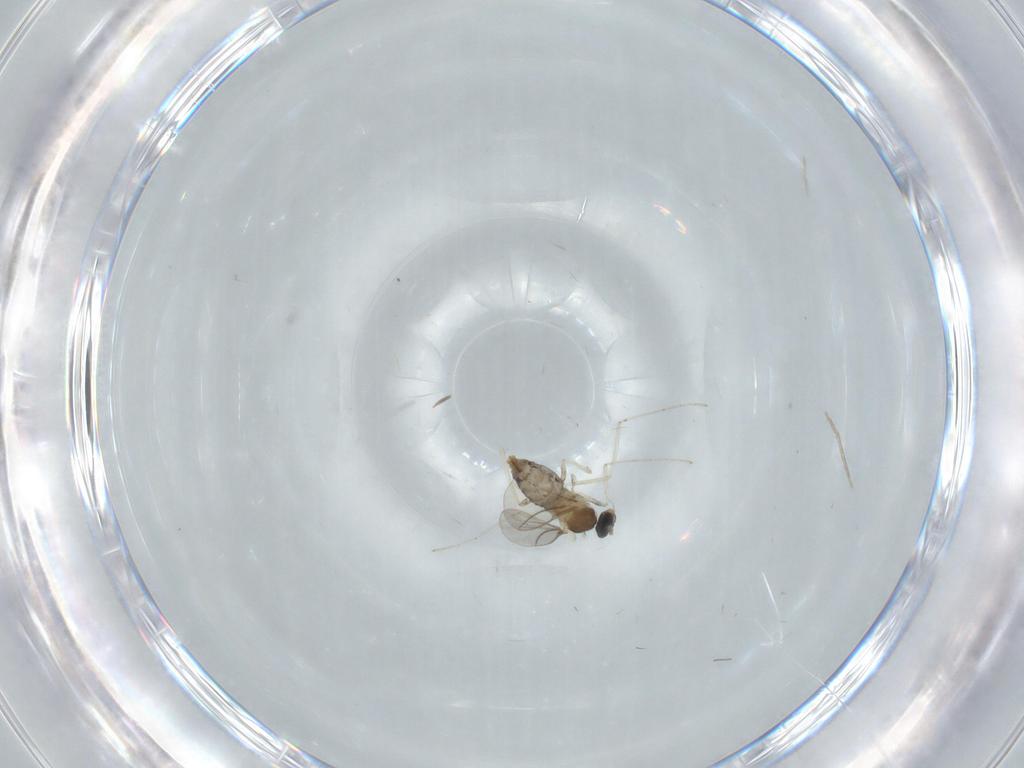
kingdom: Animalia
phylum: Arthropoda
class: Insecta
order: Diptera
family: Cecidomyiidae
